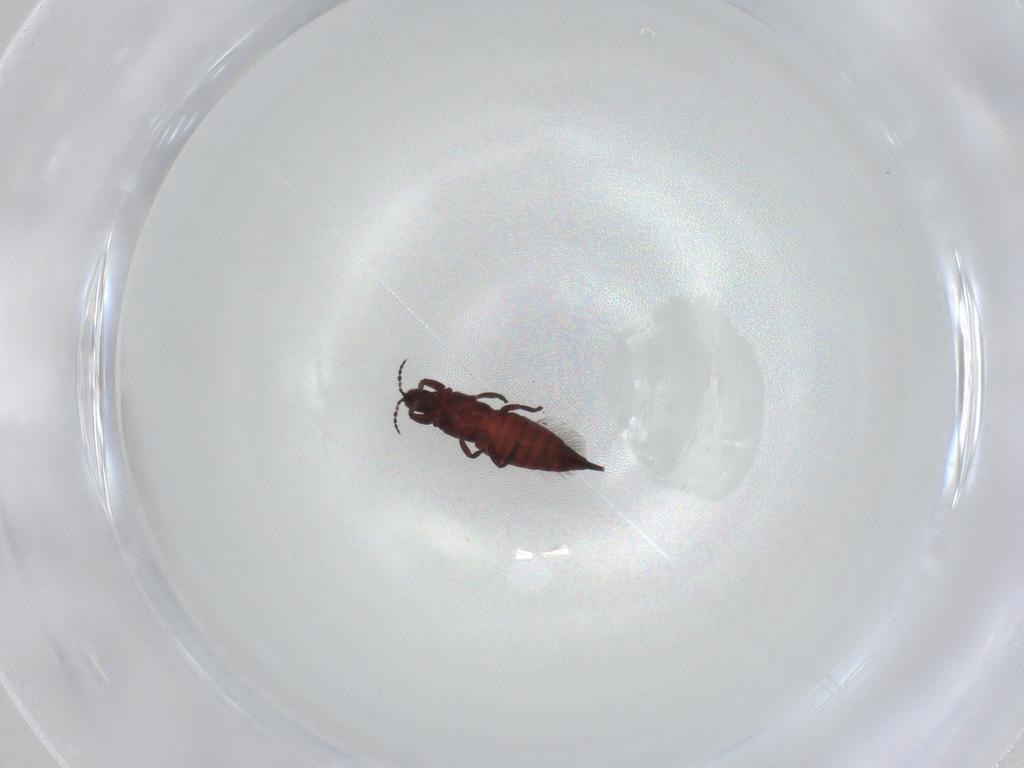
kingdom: Animalia
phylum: Arthropoda
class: Insecta
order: Thysanoptera
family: Phlaeothripidae
